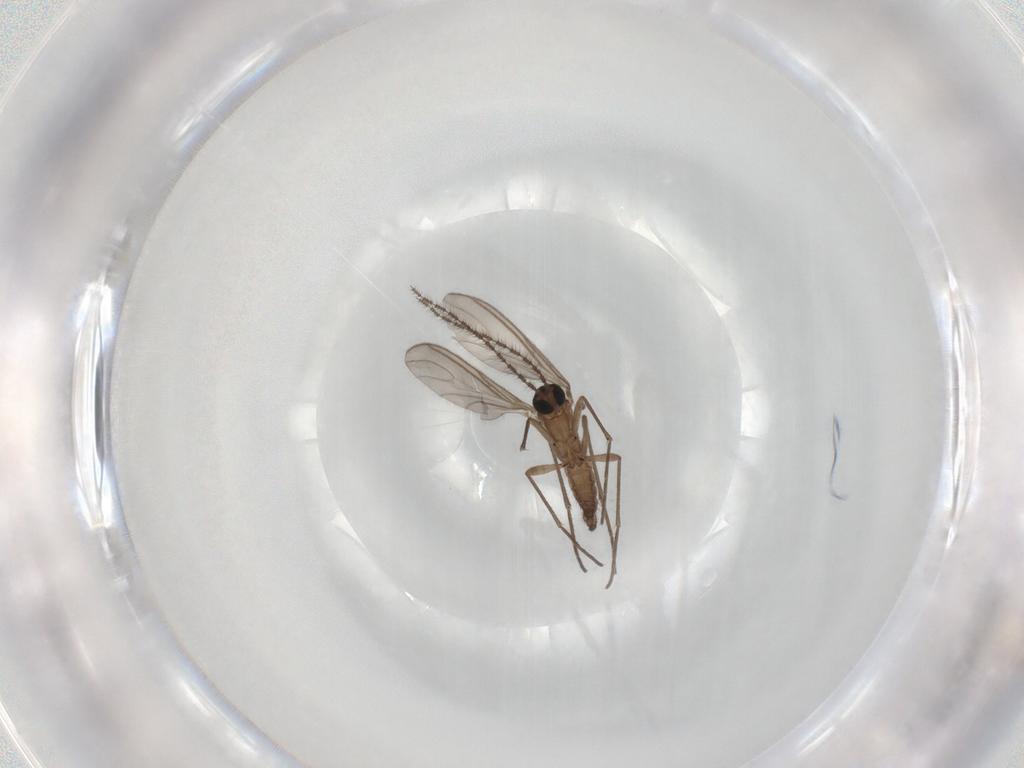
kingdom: Animalia
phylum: Arthropoda
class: Insecta
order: Diptera
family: Sciaridae
